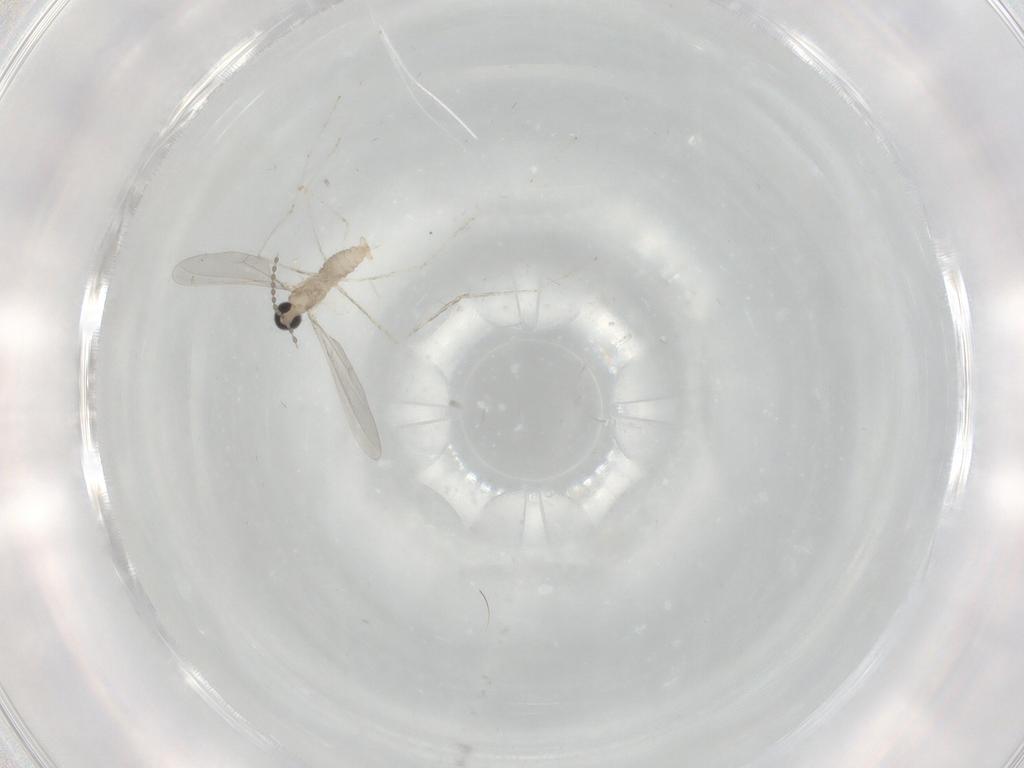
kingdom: Animalia
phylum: Arthropoda
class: Insecta
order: Diptera
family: Cecidomyiidae
